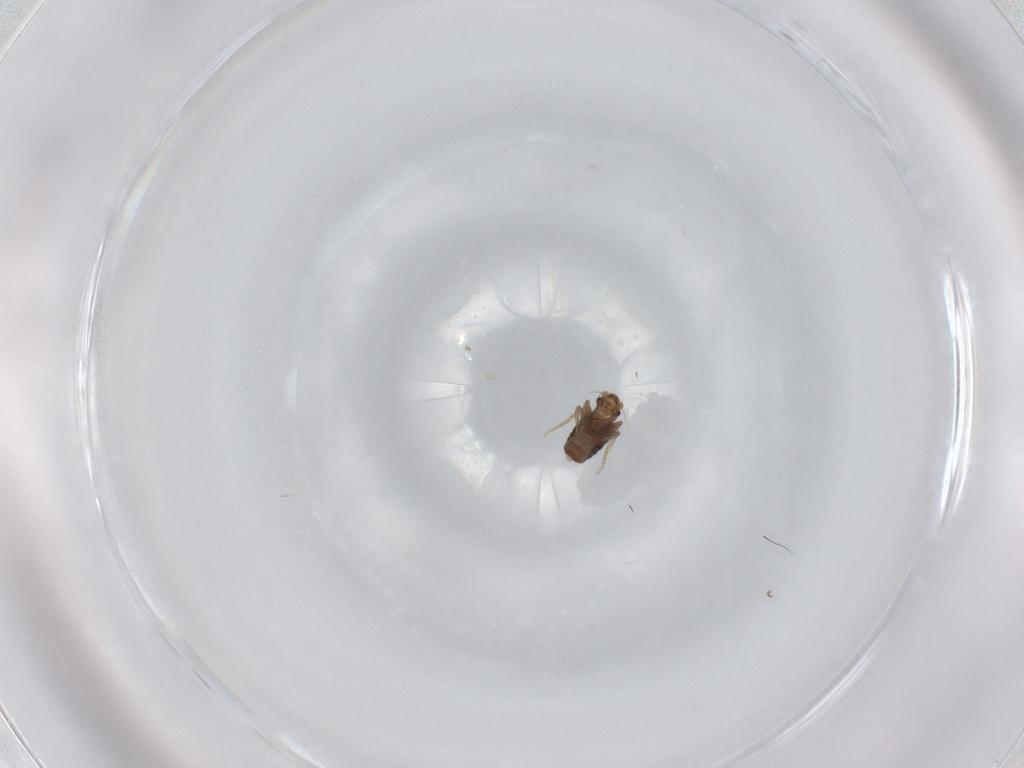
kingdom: Animalia
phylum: Arthropoda
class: Insecta
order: Diptera
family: Phoridae
